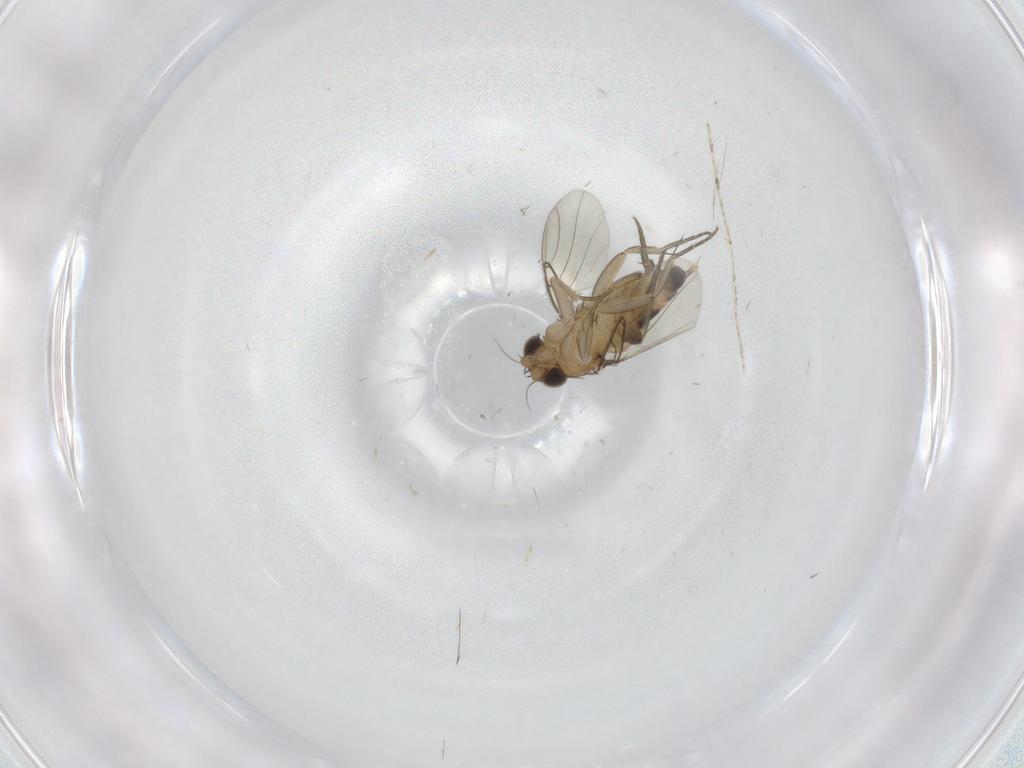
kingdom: Animalia
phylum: Arthropoda
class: Insecta
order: Diptera
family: Phoridae
